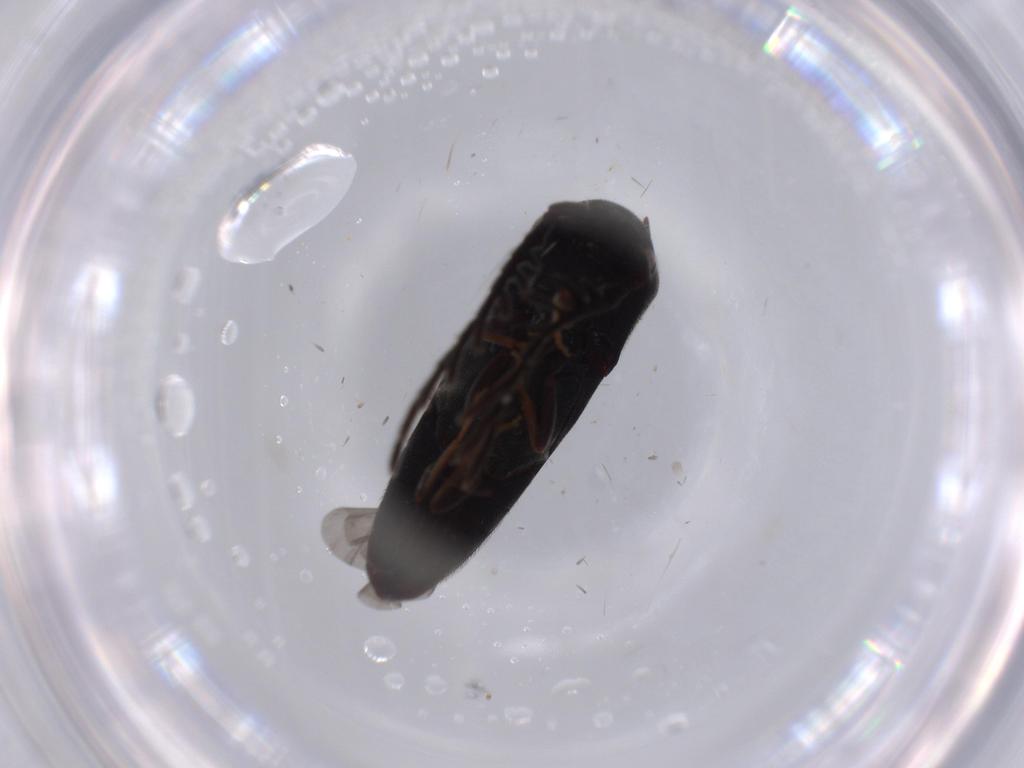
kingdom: Animalia
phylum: Arthropoda
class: Insecta
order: Coleoptera
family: Eucnemidae
